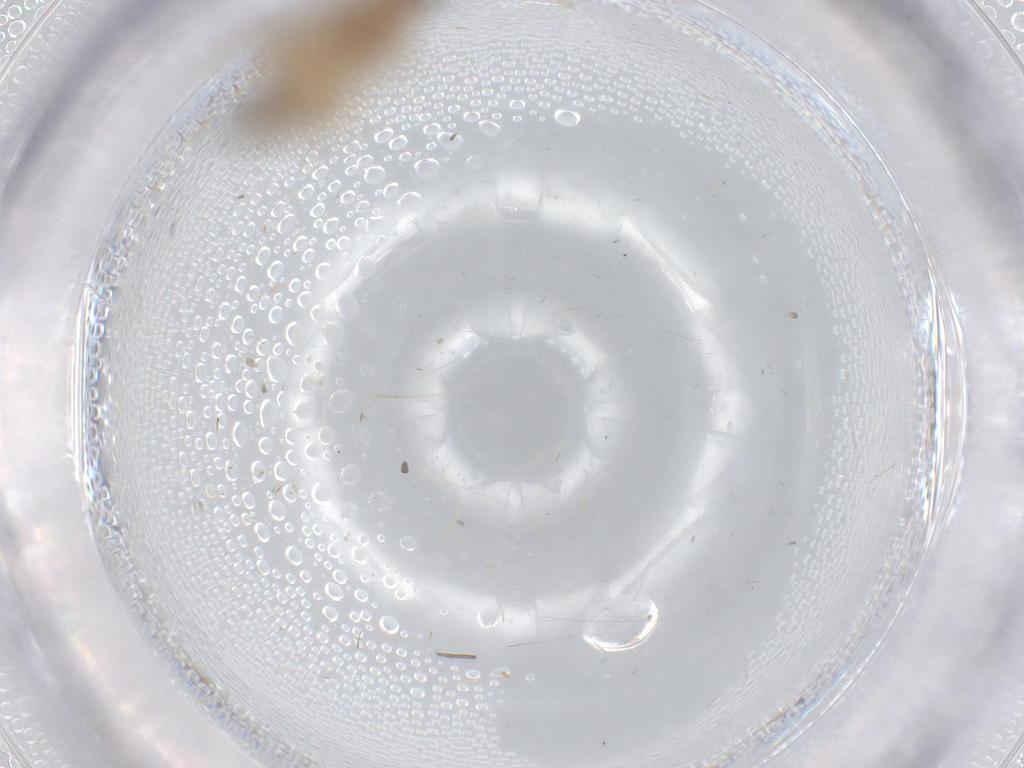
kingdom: Animalia
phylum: Arthropoda
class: Insecta
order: Diptera
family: Phoridae
